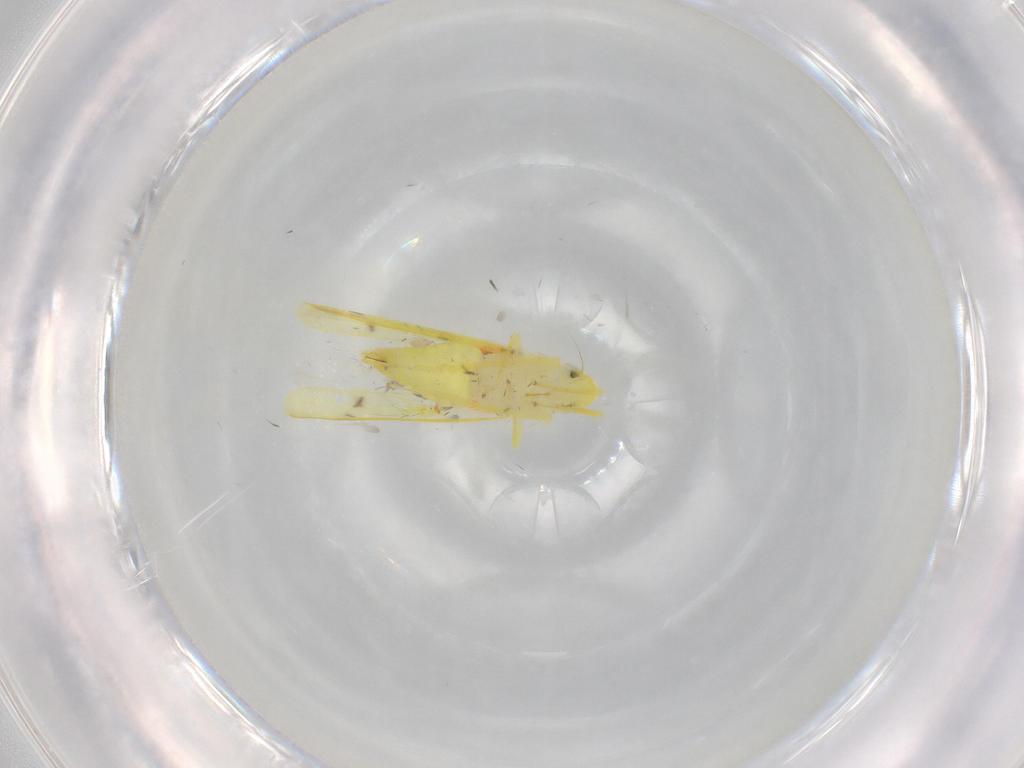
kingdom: Animalia
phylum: Arthropoda
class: Insecta
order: Hemiptera
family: Cicadellidae
